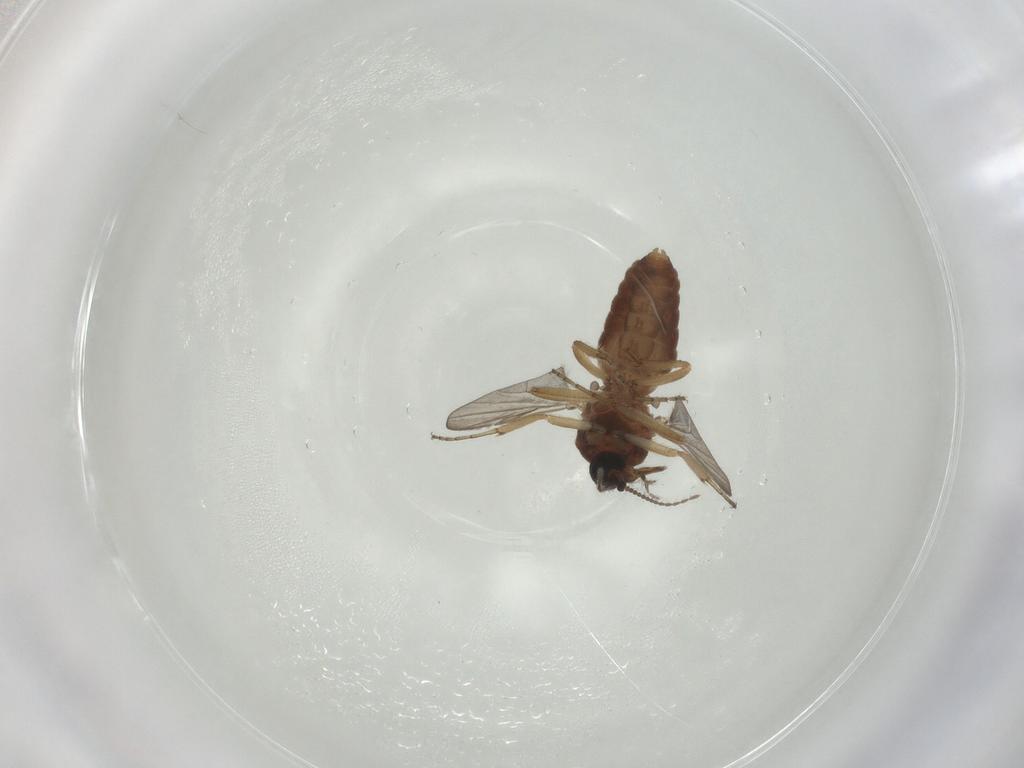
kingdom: Animalia
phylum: Arthropoda
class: Insecta
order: Diptera
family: Ceratopogonidae
